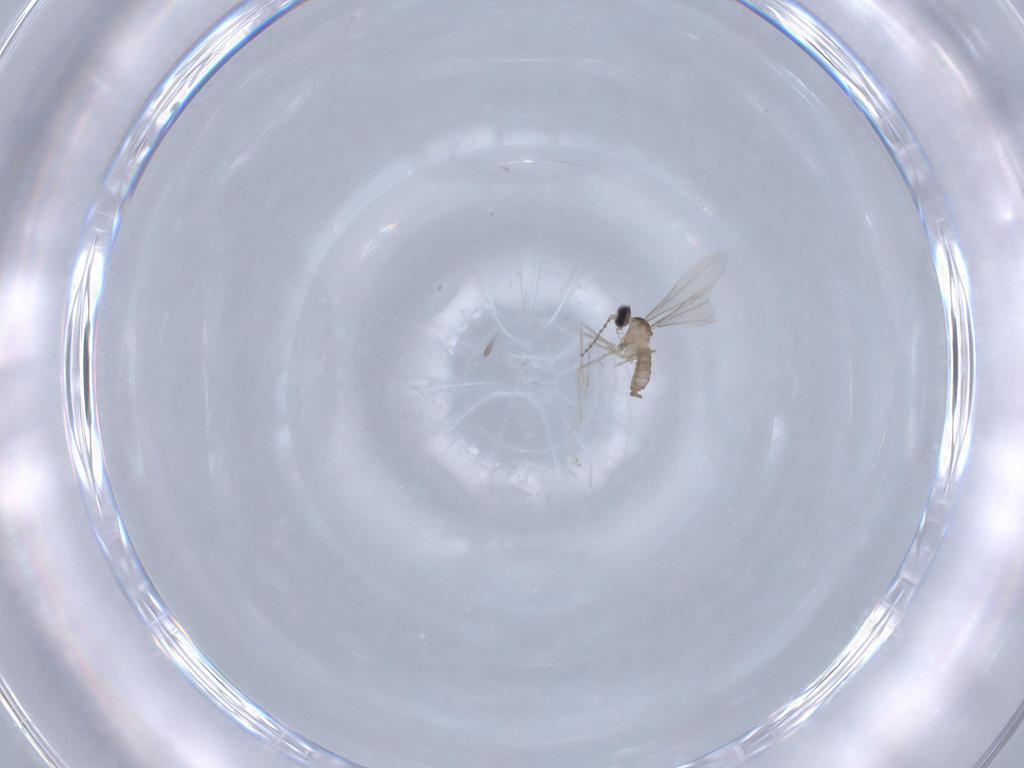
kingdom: Animalia
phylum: Arthropoda
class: Insecta
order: Diptera
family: Cecidomyiidae
